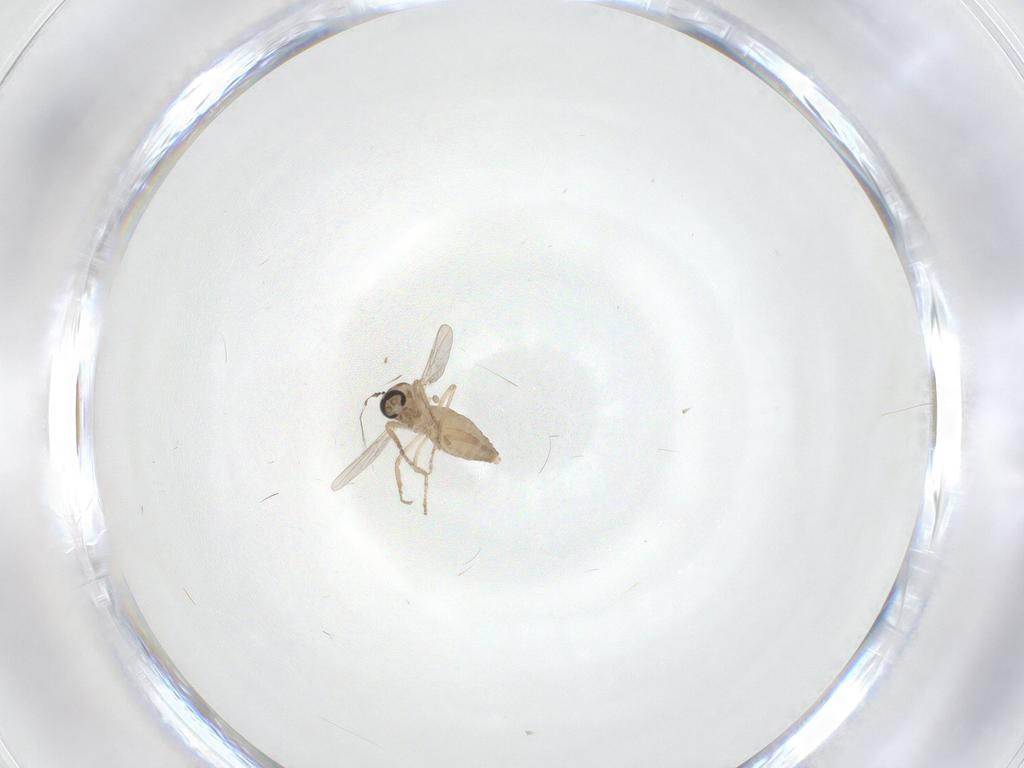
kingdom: Animalia
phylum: Arthropoda
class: Insecta
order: Diptera
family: Ceratopogonidae
